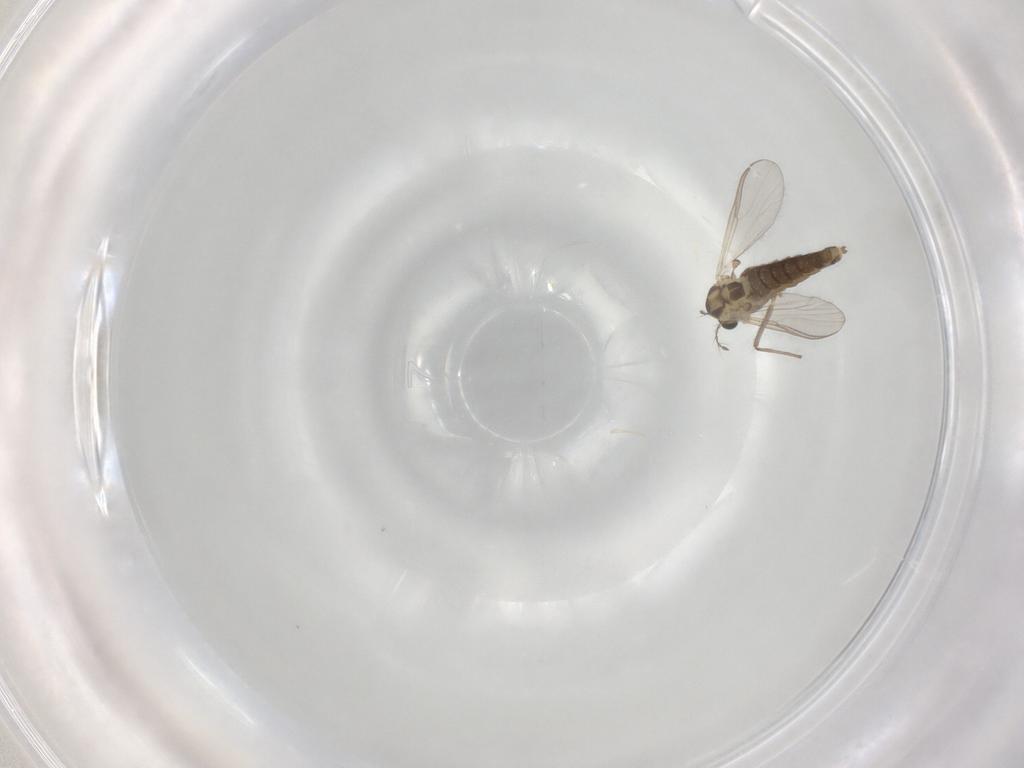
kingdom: Animalia
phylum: Arthropoda
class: Insecta
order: Diptera
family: Chironomidae
